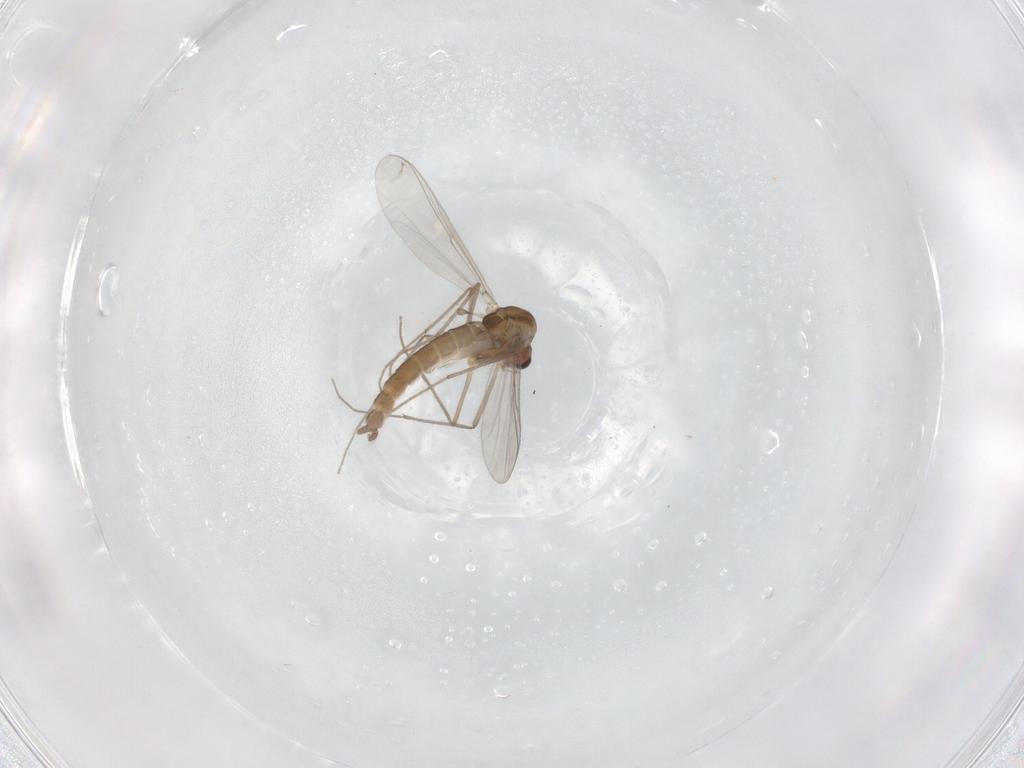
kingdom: Animalia
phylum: Arthropoda
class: Insecta
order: Diptera
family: Chironomidae
